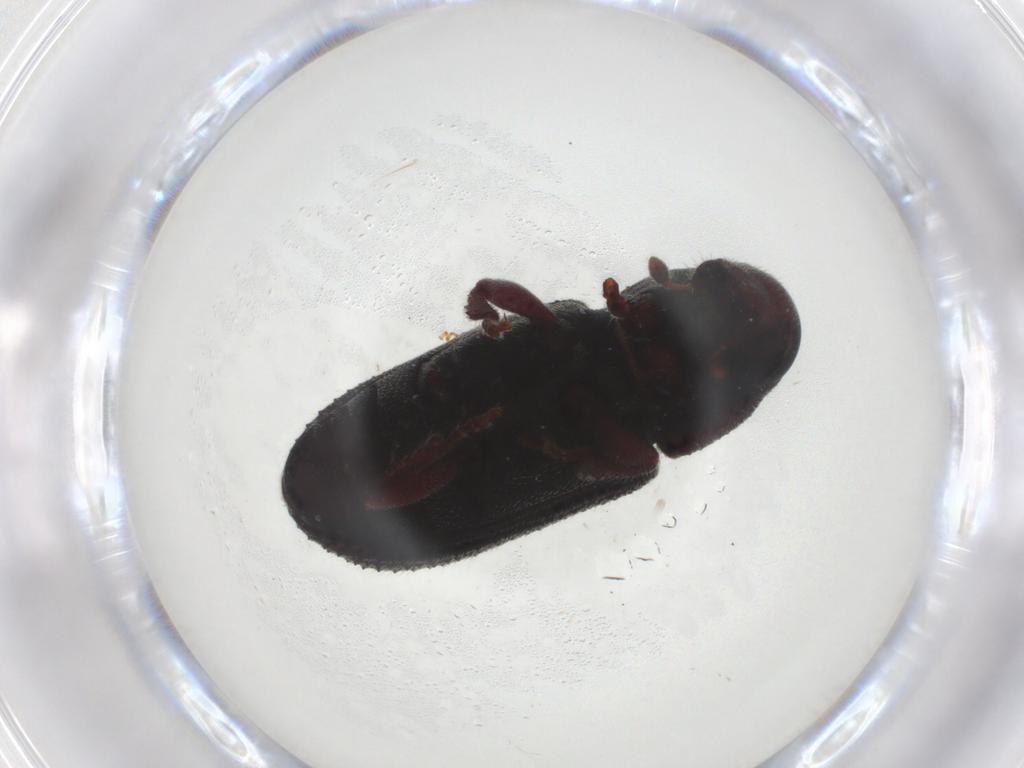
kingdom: Animalia
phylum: Arthropoda
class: Insecta
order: Coleoptera
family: Curculionidae
